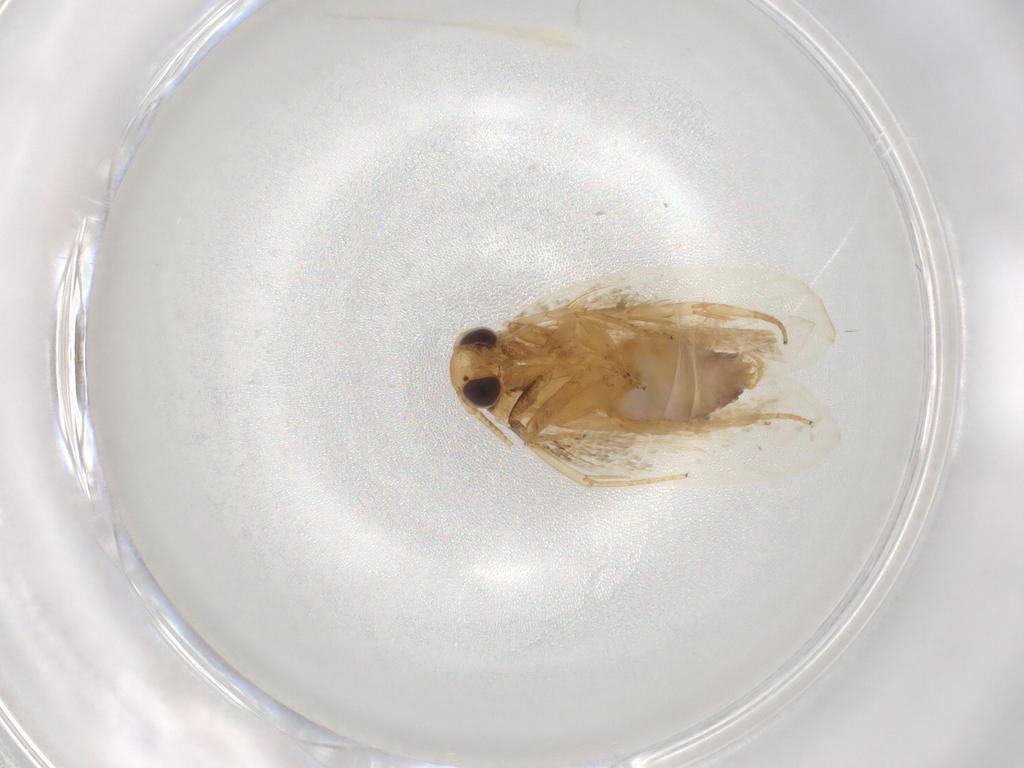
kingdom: Animalia
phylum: Arthropoda
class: Insecta
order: Lepidoptera
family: Depressariidae
